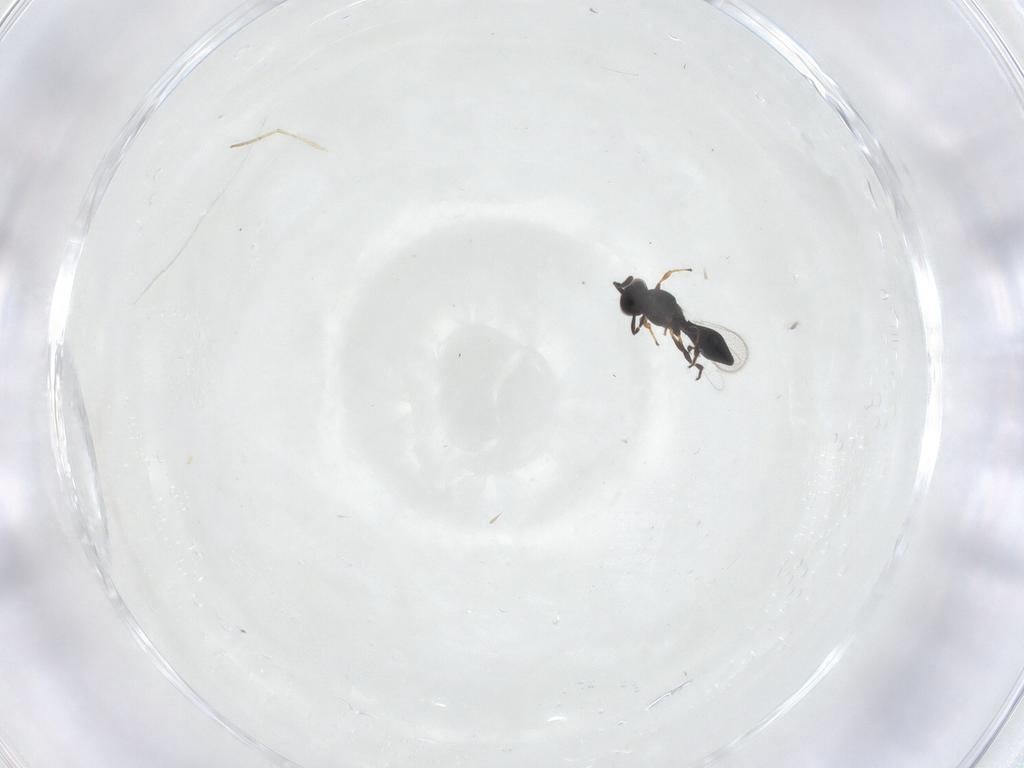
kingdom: Animalia
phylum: Arthropoda
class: Insecta
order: Hymenoptera
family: Platygastridae
